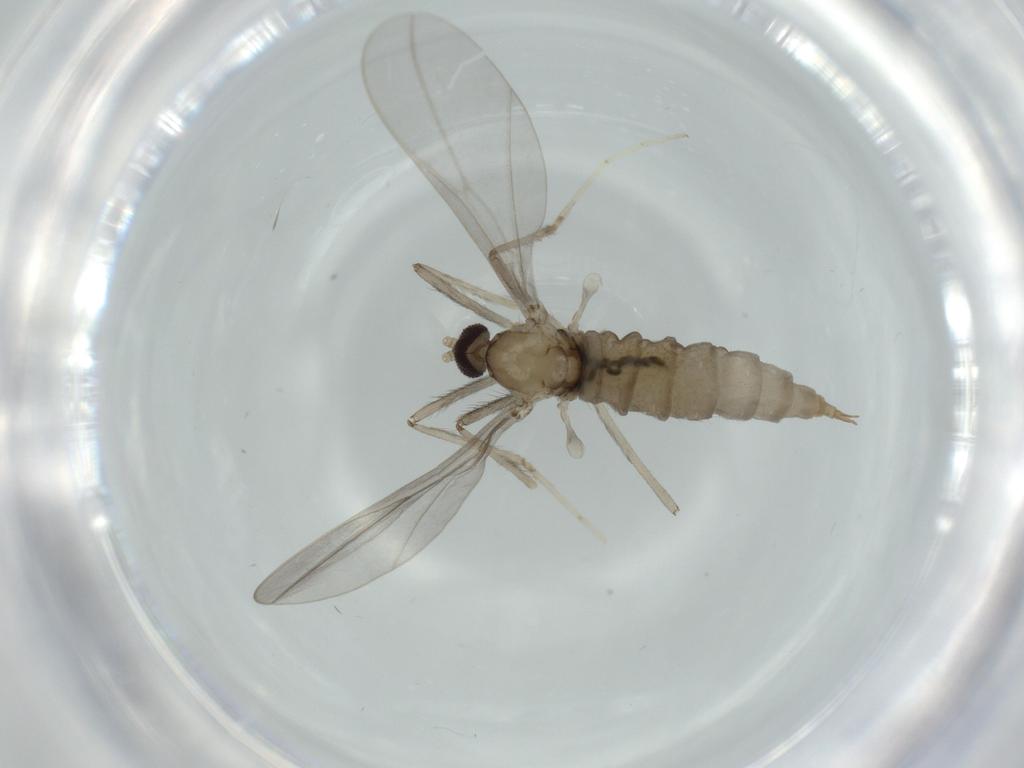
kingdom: Animalia
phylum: Arthropoda
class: Insecta
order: Diptera
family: Cecidomyiidae
